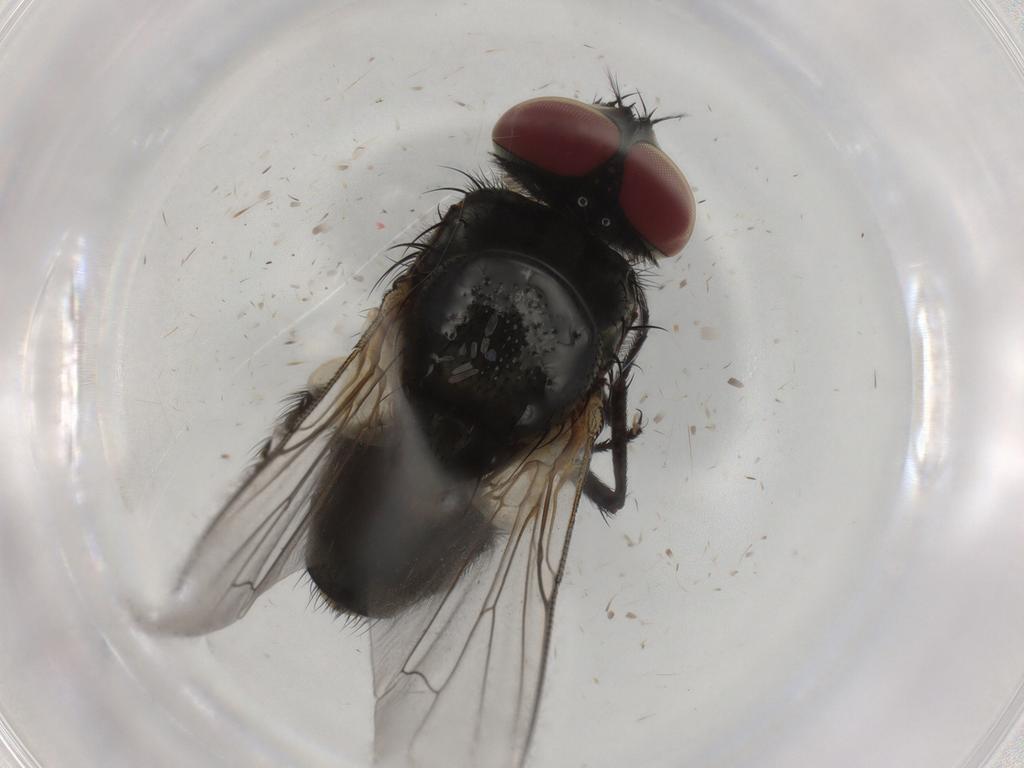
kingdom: Animalia
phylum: Arthropoda
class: Insecta
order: Diptera
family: Muscidae
